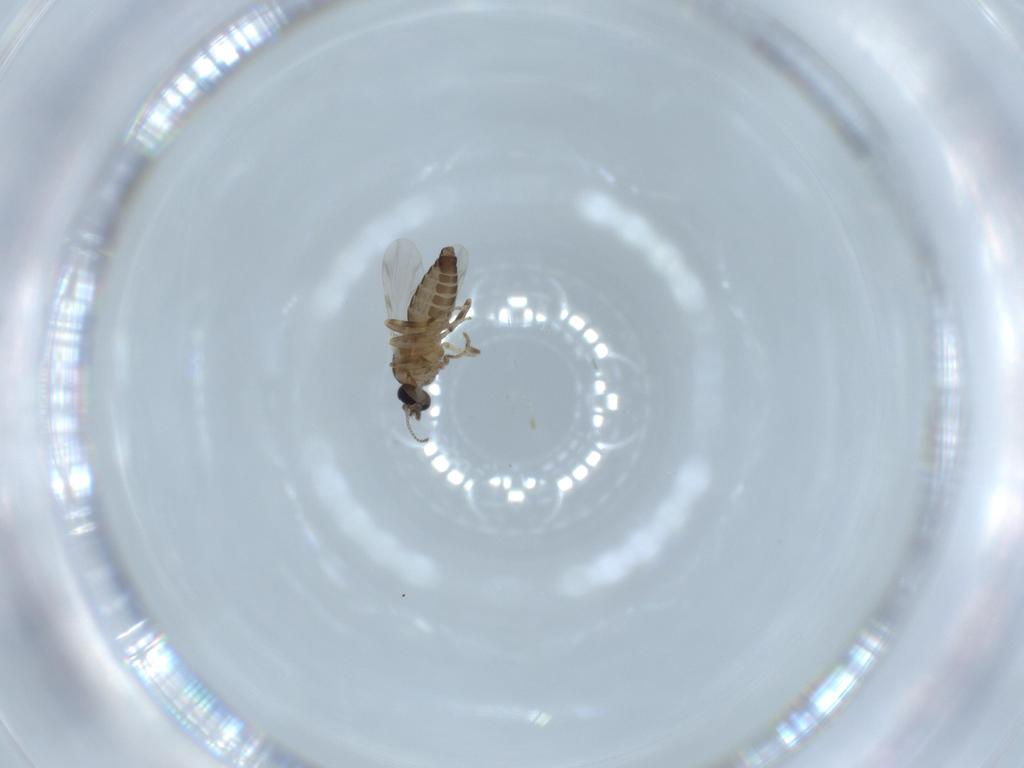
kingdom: Animalia
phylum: Arthropoda
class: Insecta
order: Diptera
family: Ceratopogonidae
